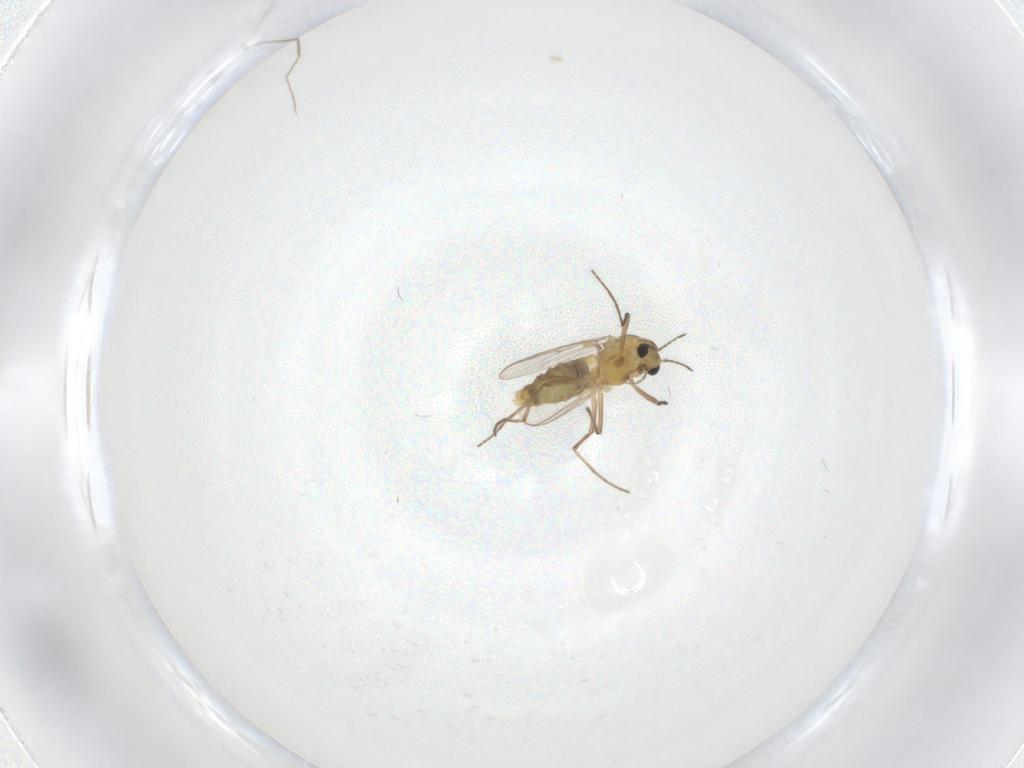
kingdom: Animalia
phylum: Arthropoda
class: Insecta
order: Diptera
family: Chironomidae
